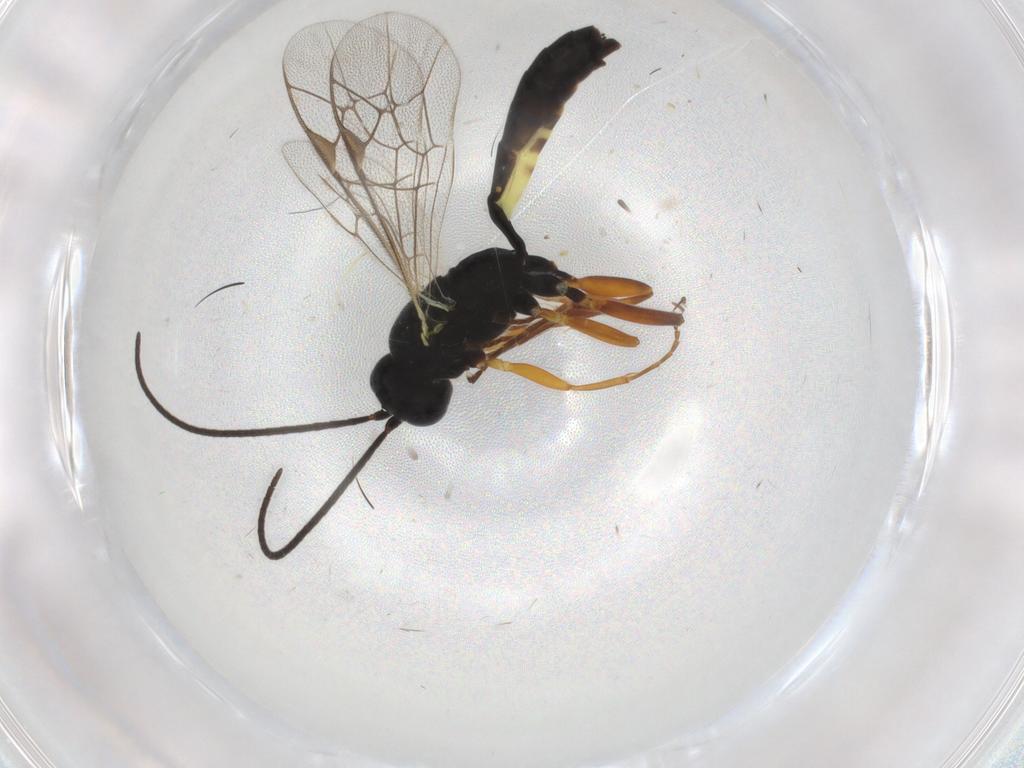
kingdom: Animalia
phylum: Arthropoda
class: Insecta
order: Hymenoptera
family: Ichneumonidae
